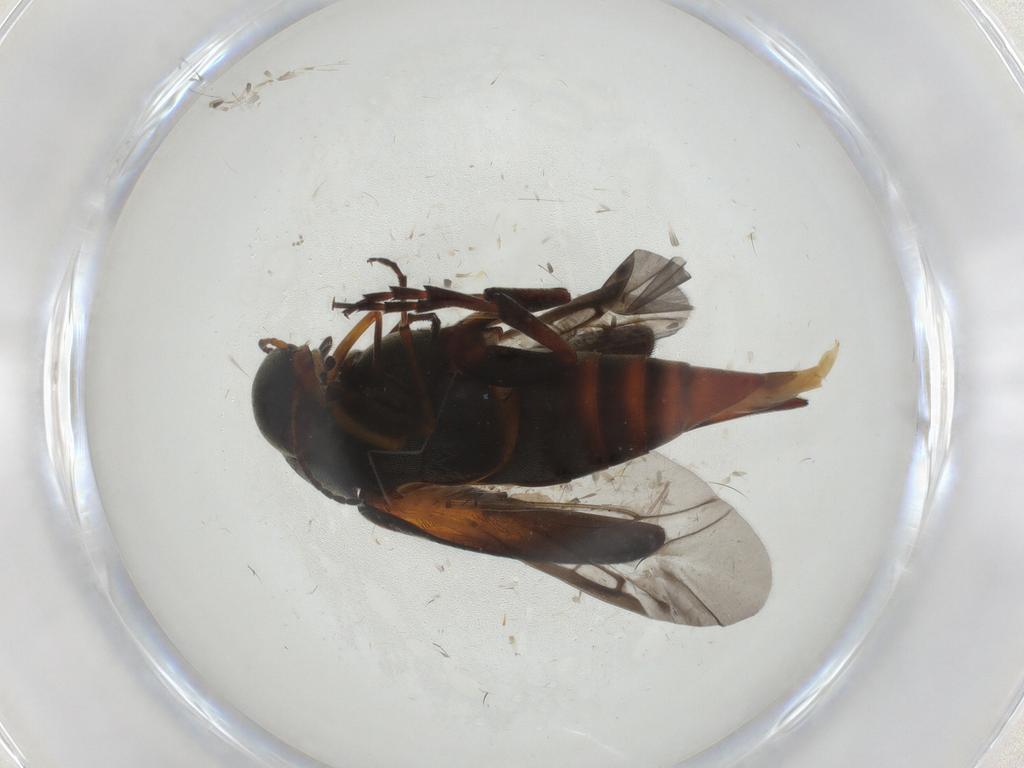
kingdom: Animalia
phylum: Arthropoda
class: Insecta
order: Coleoptera
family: Mordellidae
